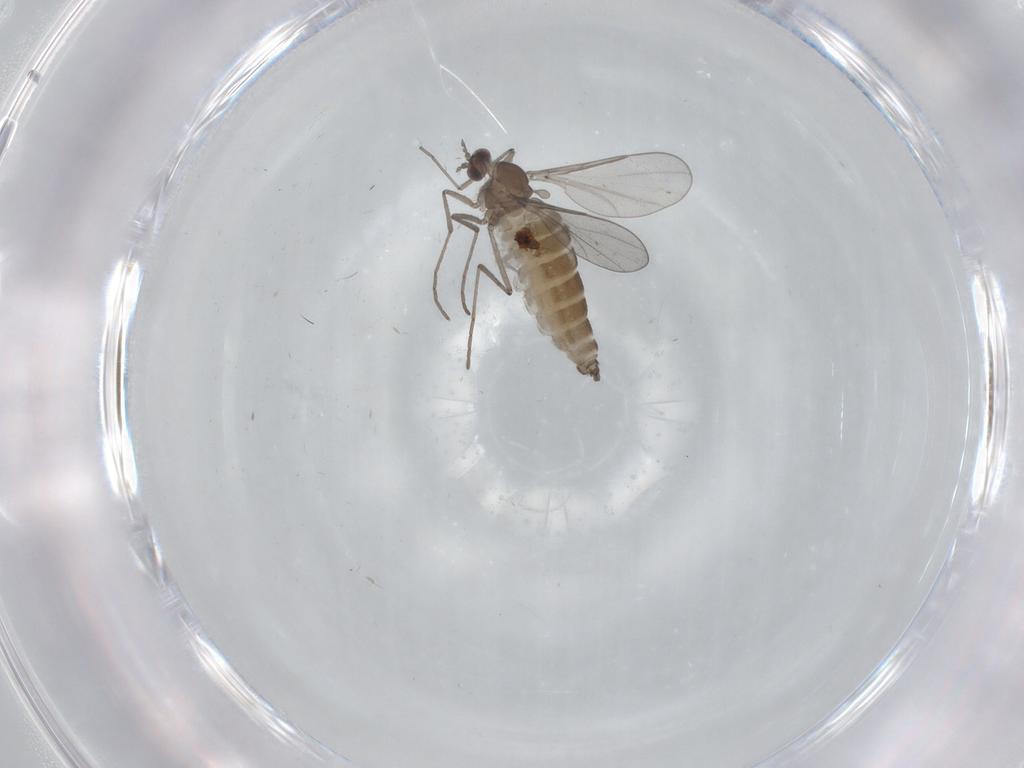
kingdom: Animalia
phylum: Arthropoda
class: Insecta
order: Diptera
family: Cecidomyiidae
